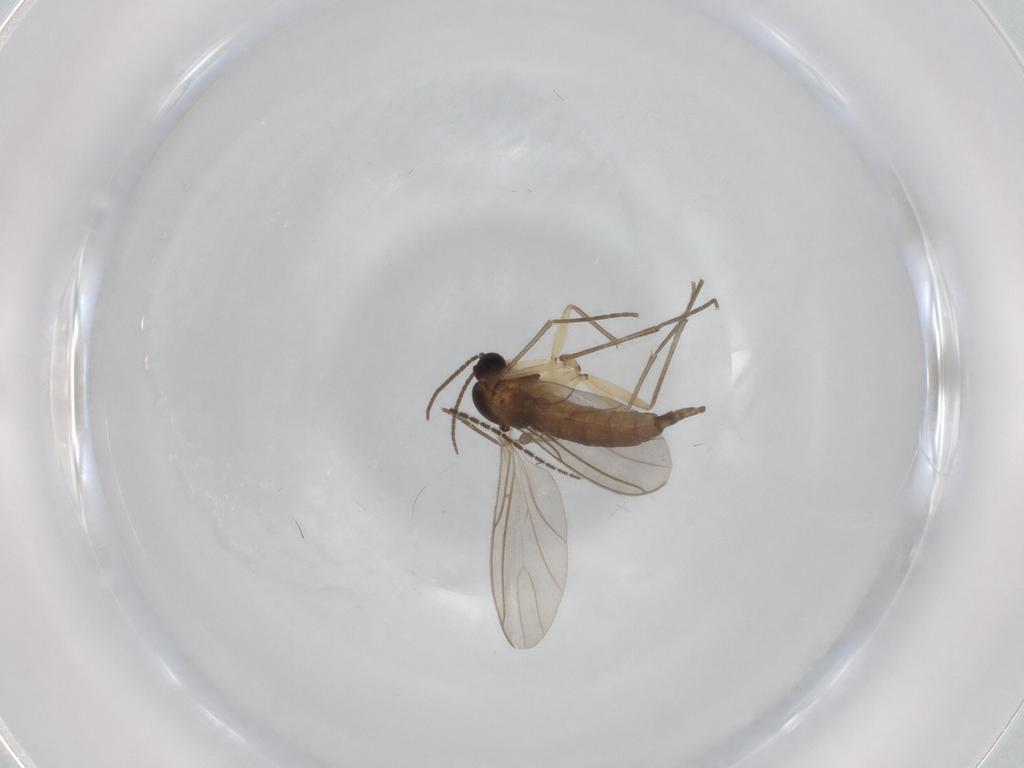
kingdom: Animalia
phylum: Arthropoda
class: Insecta
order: Diptera
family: Sciaridae
